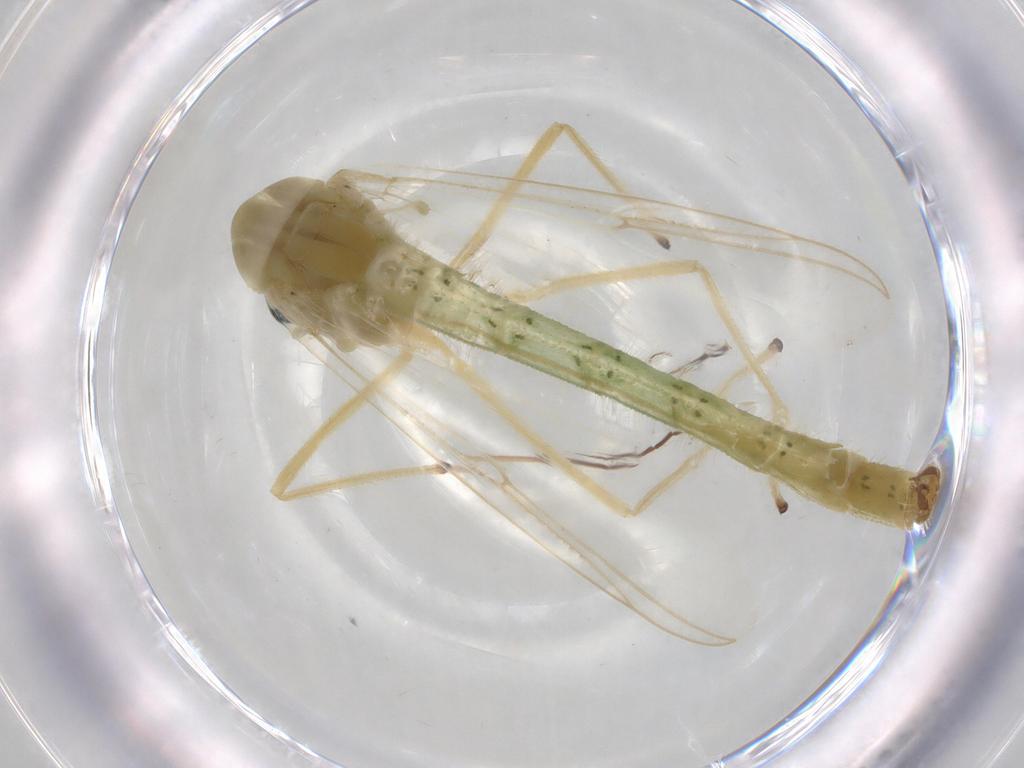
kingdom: Animalia
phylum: Arthropoda
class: Insecta
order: Diptera
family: Chironomidae
